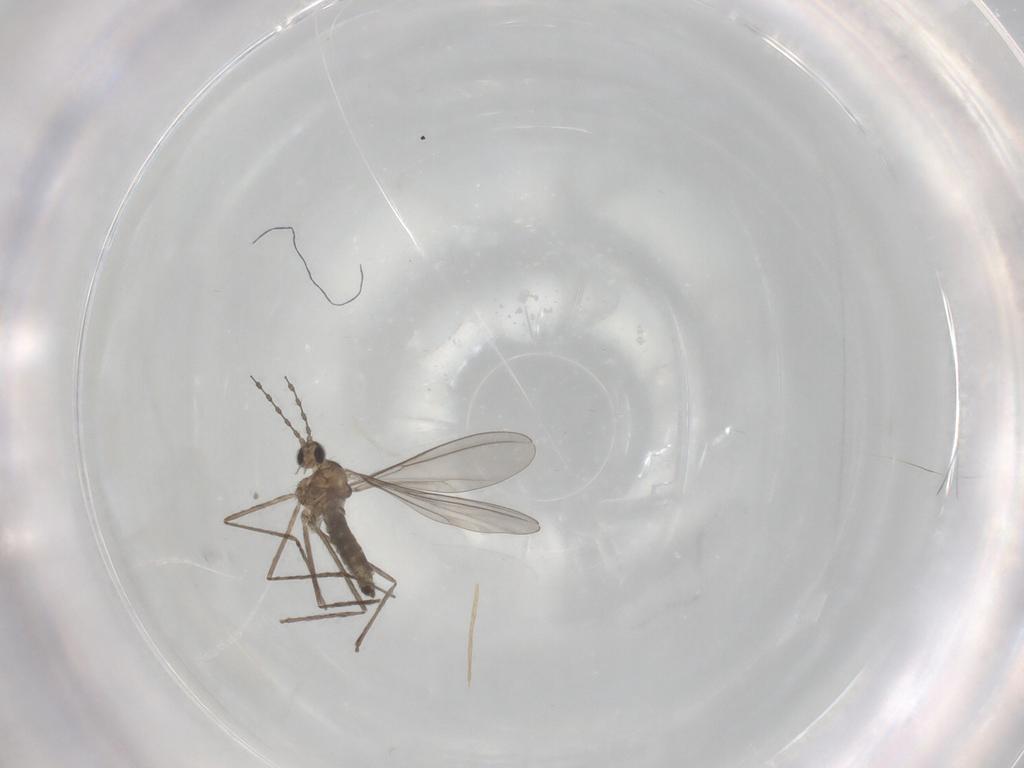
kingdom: Animalia
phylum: Arthropoda
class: Insecta
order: Diptera
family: Cecidomyiidae
